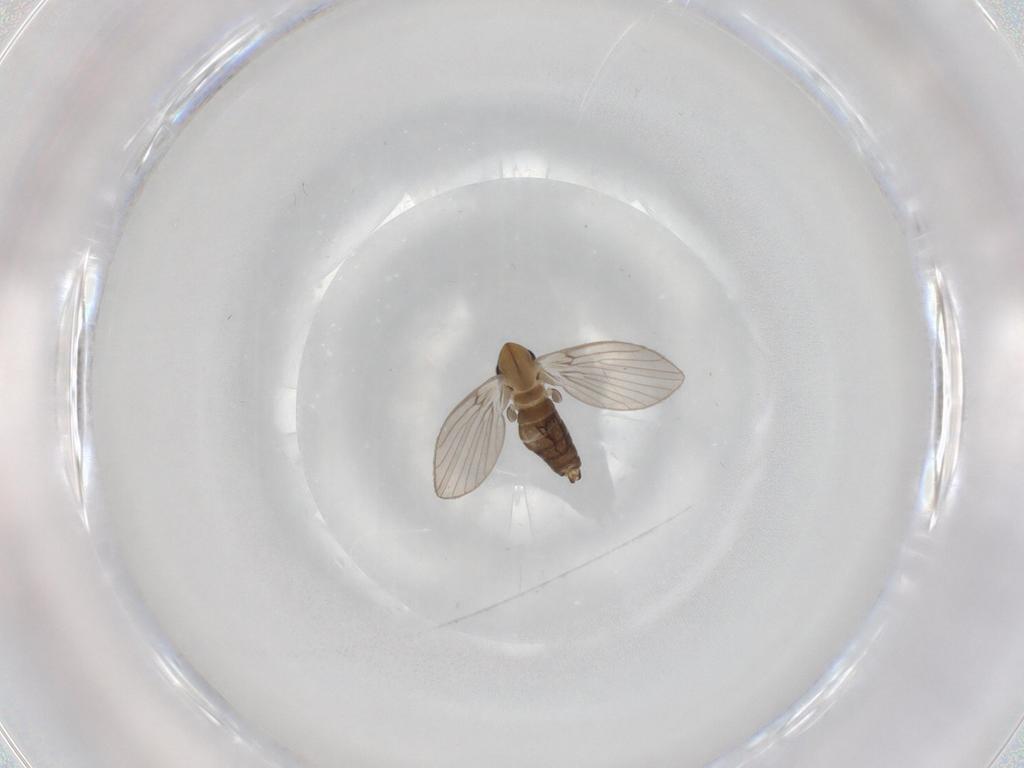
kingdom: Animalia
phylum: Arthropoda
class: Insecta
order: Diptera
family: Psychodidae
